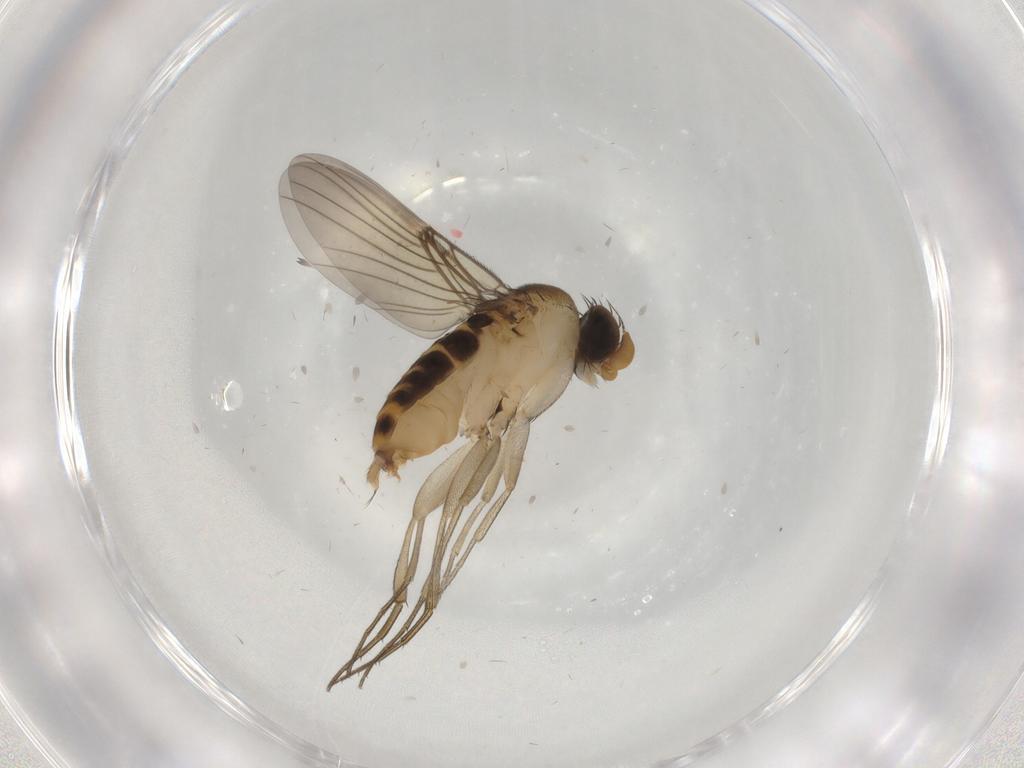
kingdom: Animalia
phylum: Arthropoda
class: Insecta
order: Diptera
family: Phoridae
